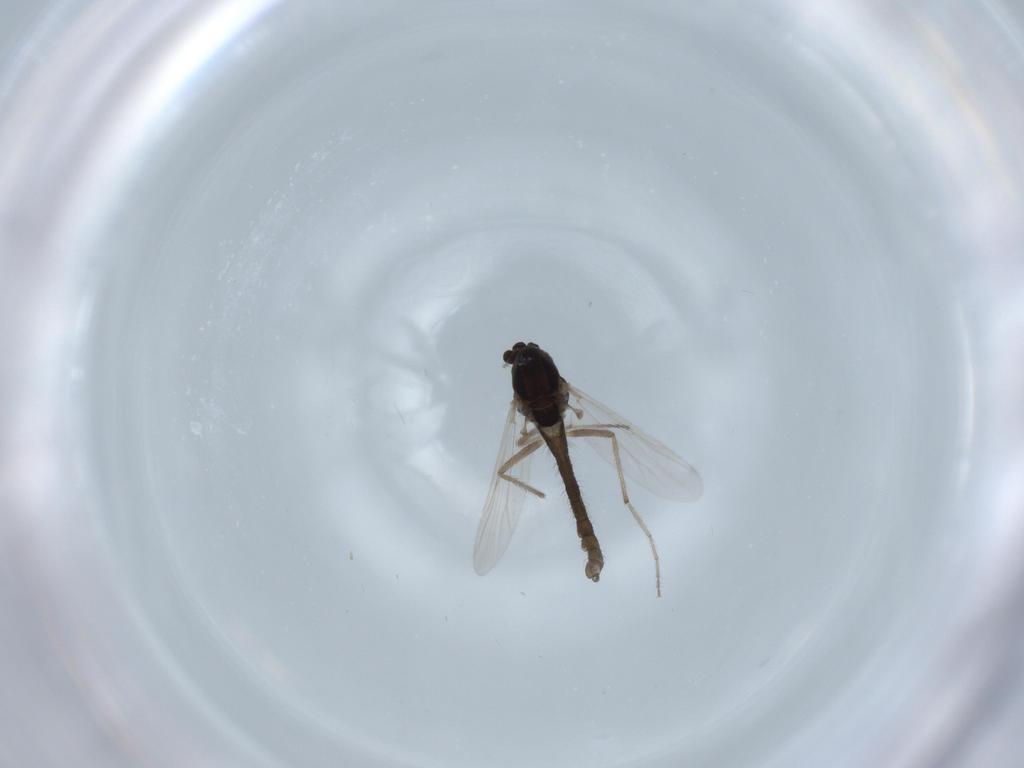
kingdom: Animalia
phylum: Arthropoda
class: Insecta
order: Diptera
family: Chironomidae
